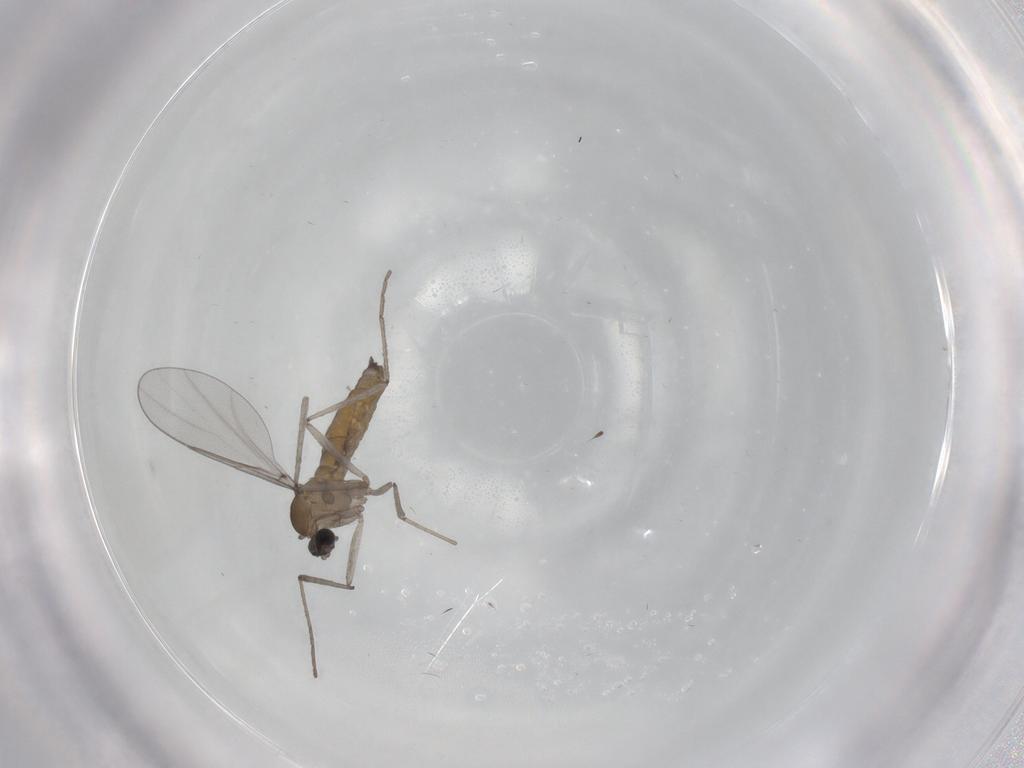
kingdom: Animalia
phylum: Arthropoda
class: Insecta
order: Diptera
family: Cecidomyiidae
